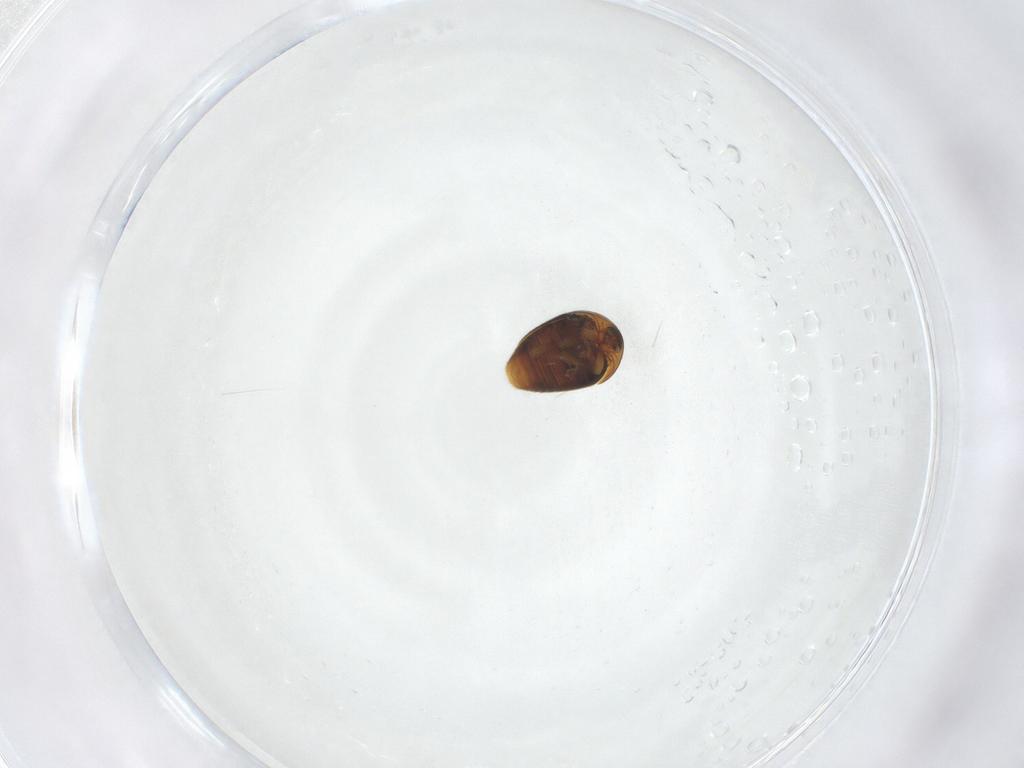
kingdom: Animalia
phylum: Arthropoda
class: Insecta
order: Coleoptera
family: Corylophidae
